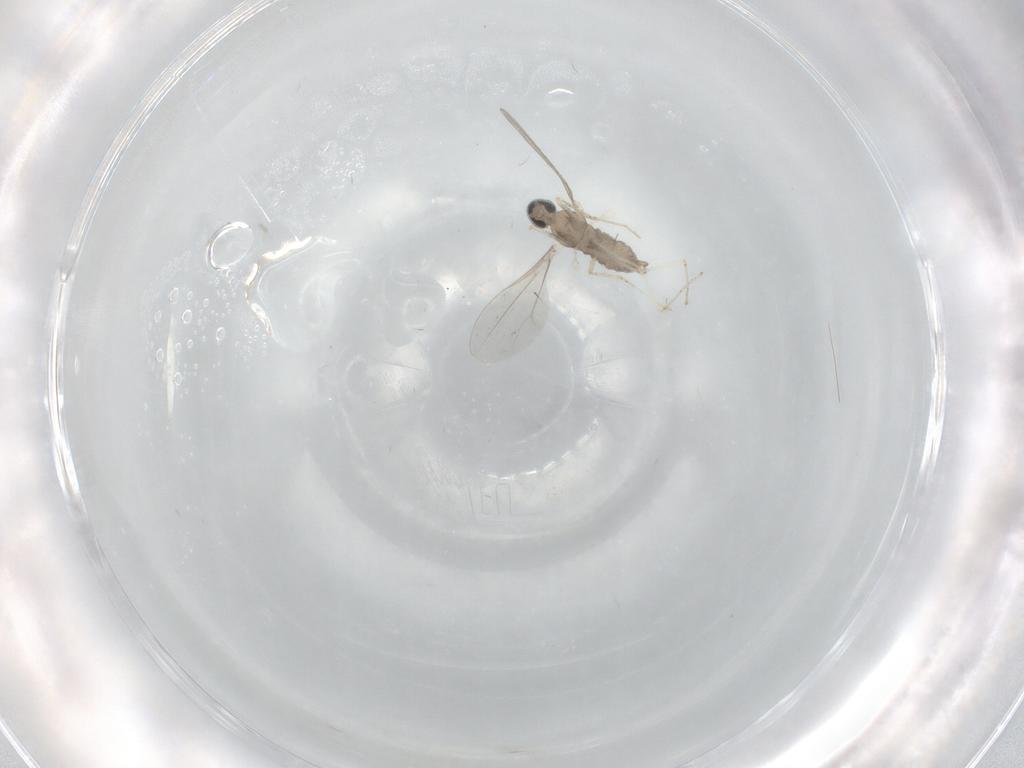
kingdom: Animalia
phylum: Arthropoda
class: Insecta
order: Diptera
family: Cecidomyiidae
